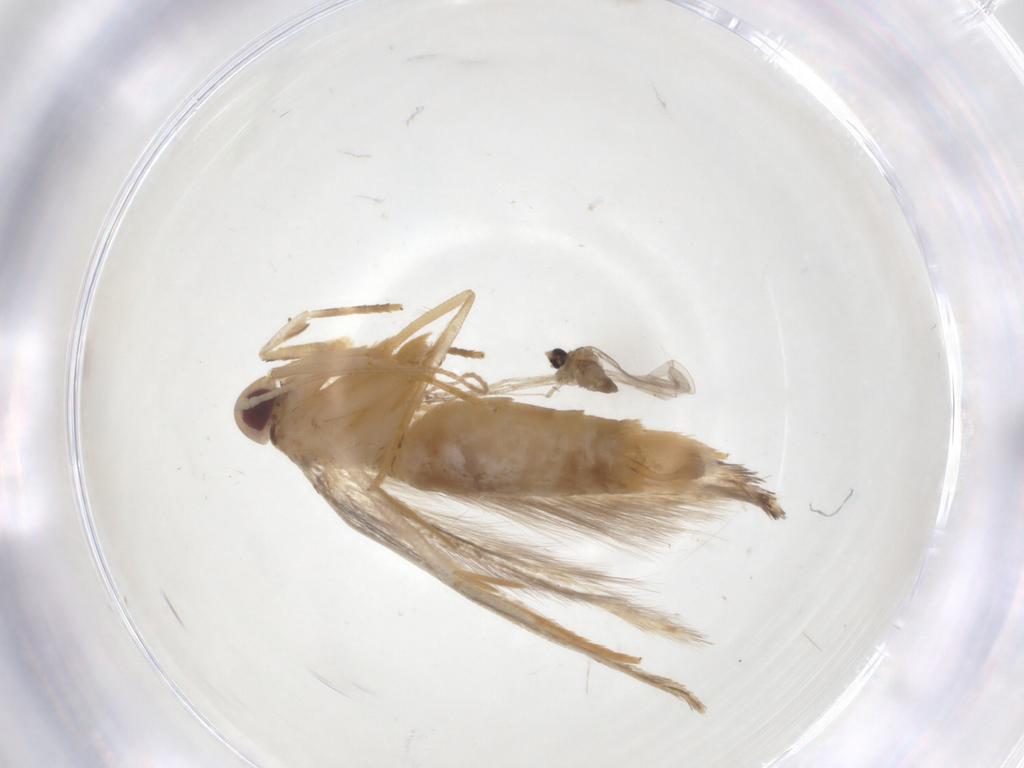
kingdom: Animalia
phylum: Arthropoda
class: Insecta
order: Lepidoptera
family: Cosmopterigidae
